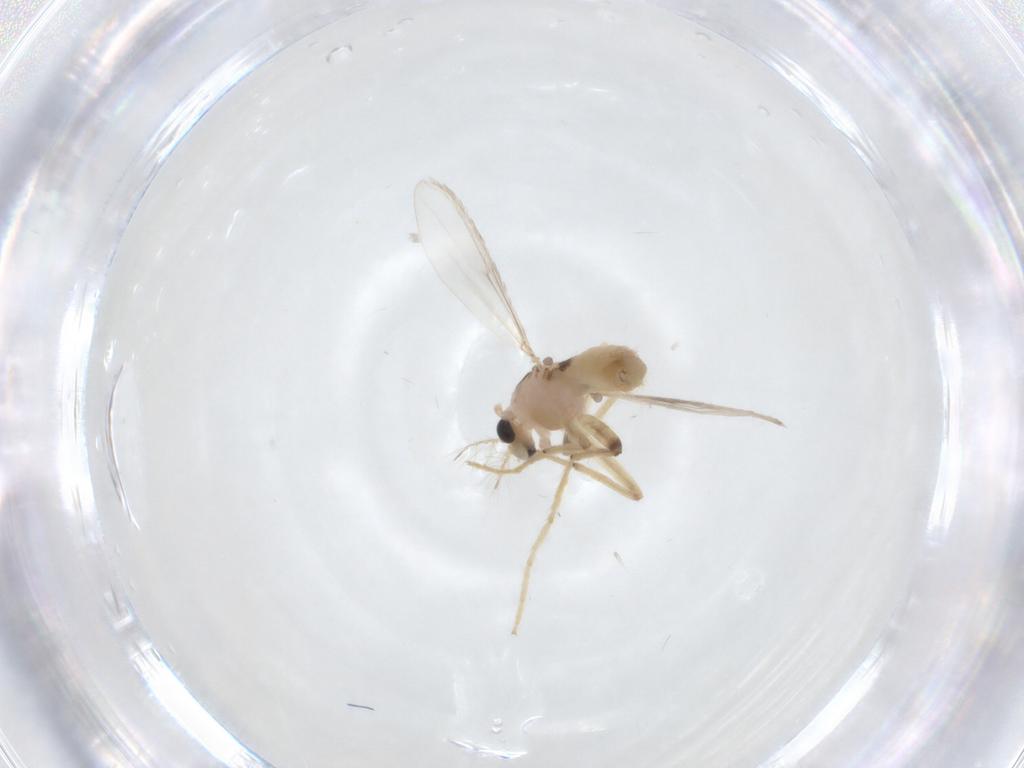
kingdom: Animalia
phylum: Arthropoda
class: Insecta
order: Diptera
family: Chironomidae
